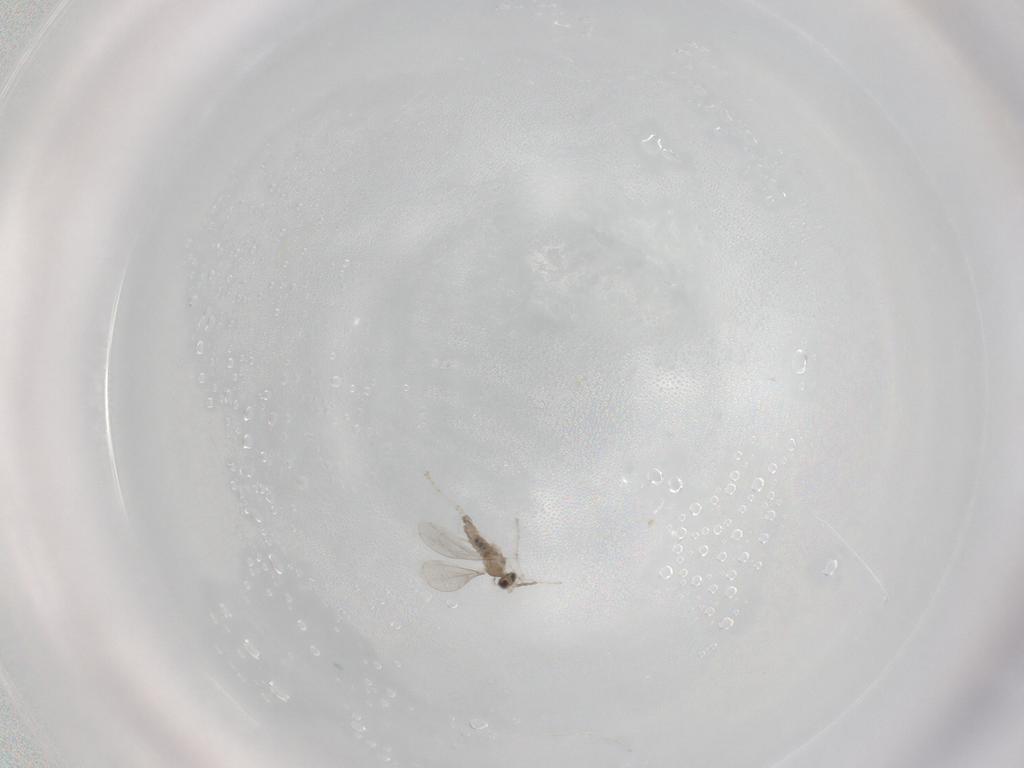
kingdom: Animalia
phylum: Arthropoda
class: Insecta
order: Diptera
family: Cecidomyiidae
